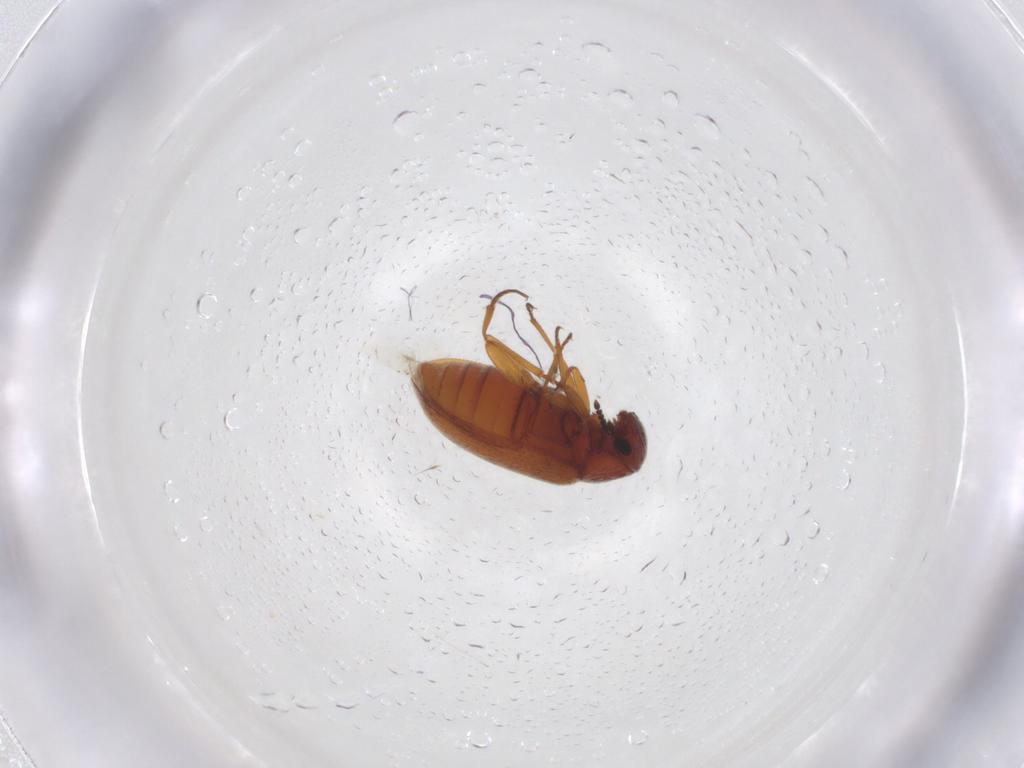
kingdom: Animalia
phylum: Arthropoda
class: Insecta
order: Coleoptera
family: Rhadalidae
